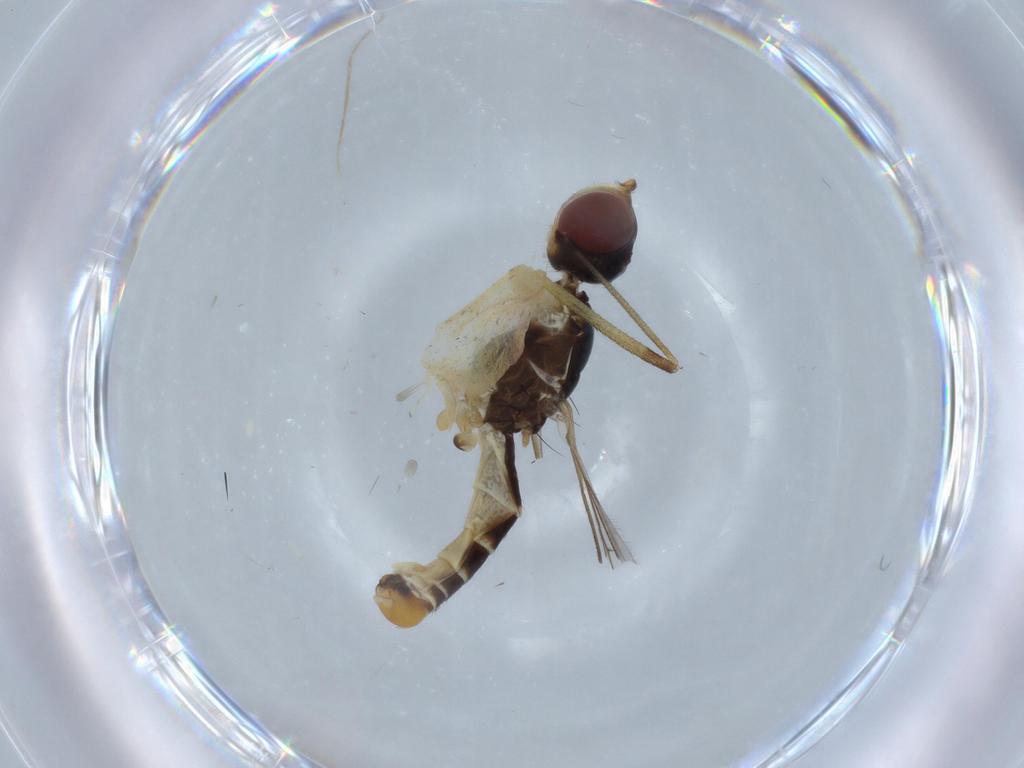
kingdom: Animalia
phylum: Arthropoda
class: Insecta
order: Diptera
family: Micropezidae
